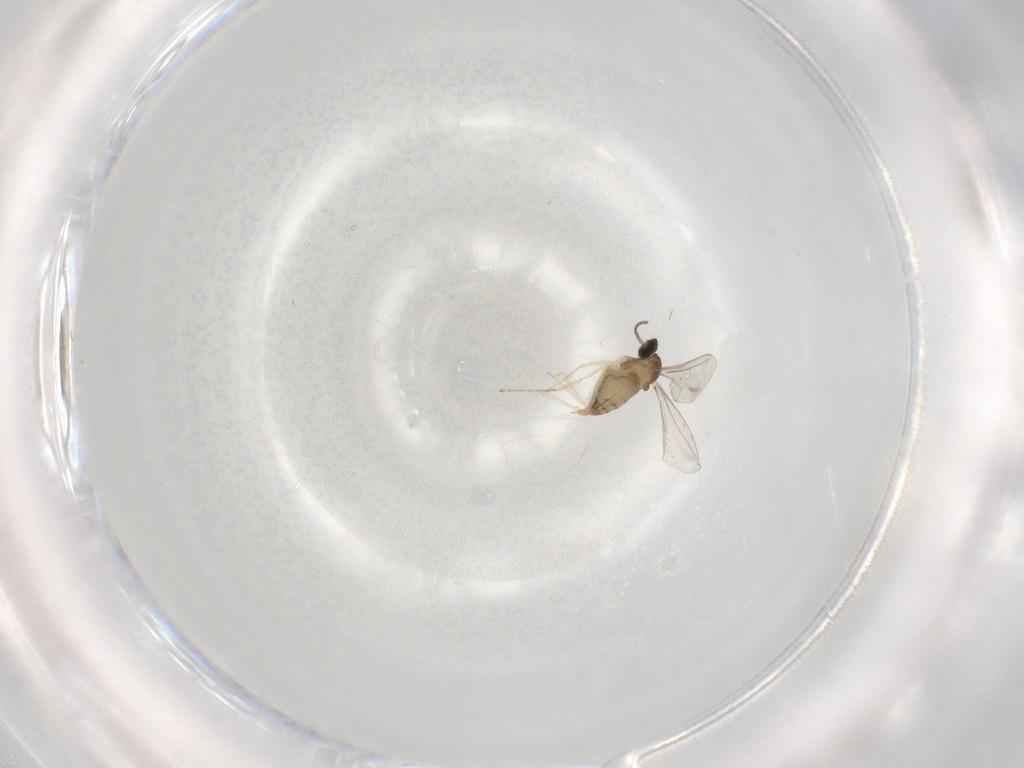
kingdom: Animalia
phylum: Arthropoda
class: Insecta
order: Diptera
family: Cecidomyiidae
